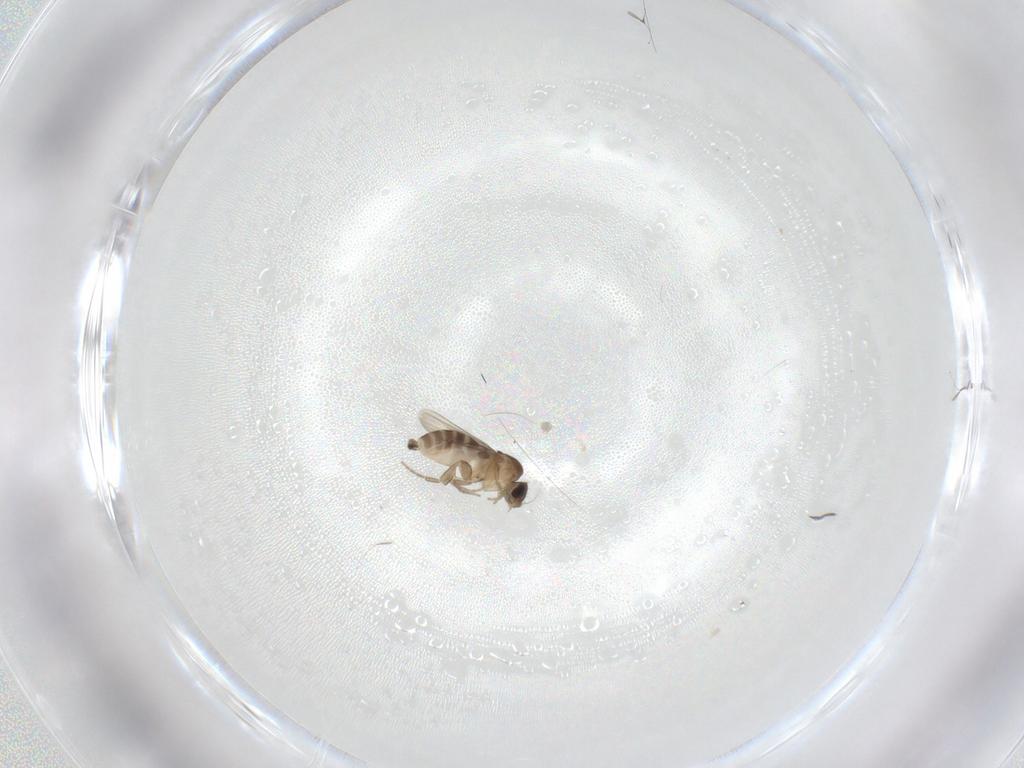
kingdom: Animalia
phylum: Arthropoda
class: Insecta
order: Diptera
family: Phoridae
